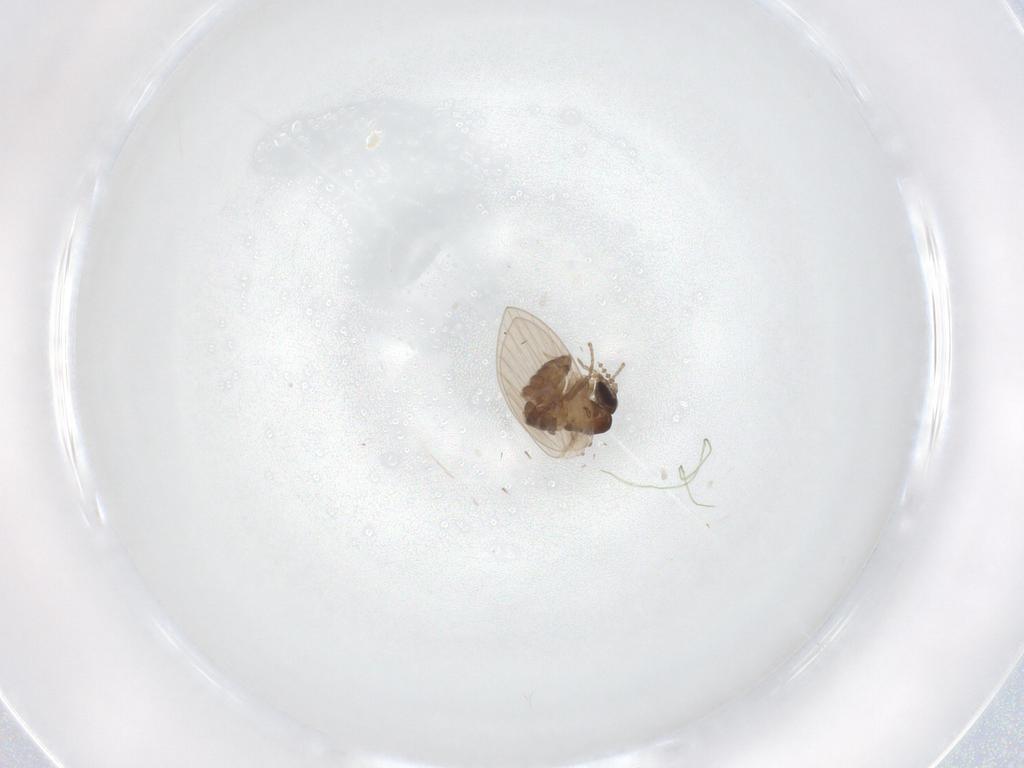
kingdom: Animalia
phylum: Arthropoda
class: Insecta
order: Diptera
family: Psychodidae
